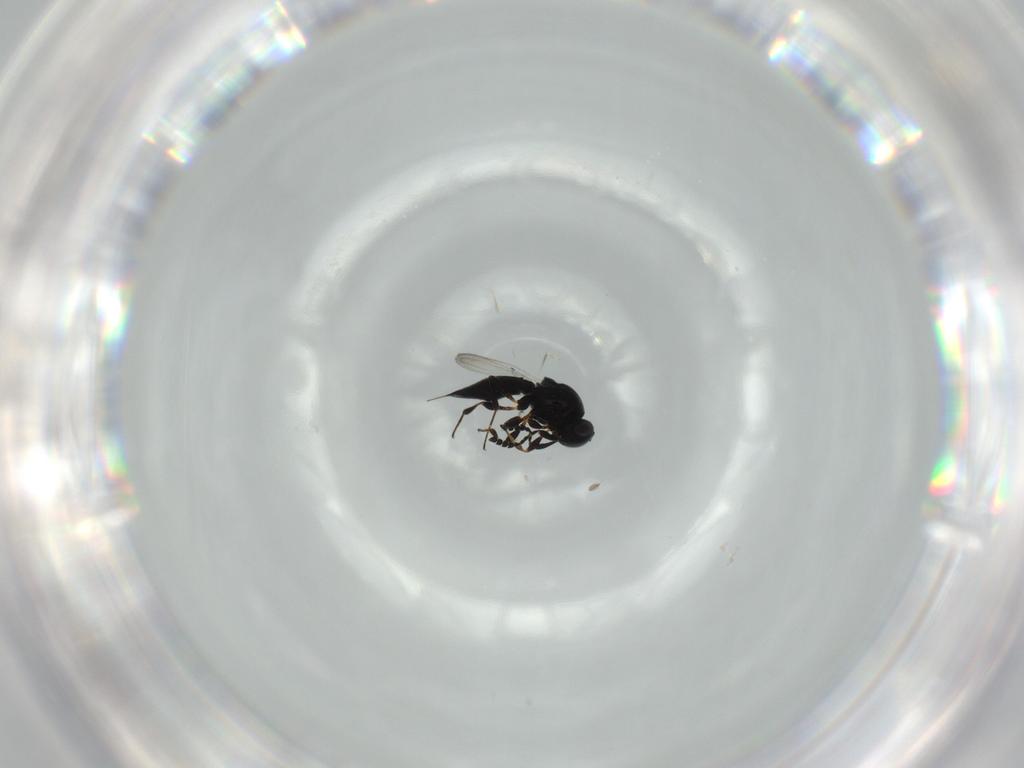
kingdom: Animalia
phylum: Arthropoda
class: Insecta
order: Hymenoptera
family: Platygastridae
